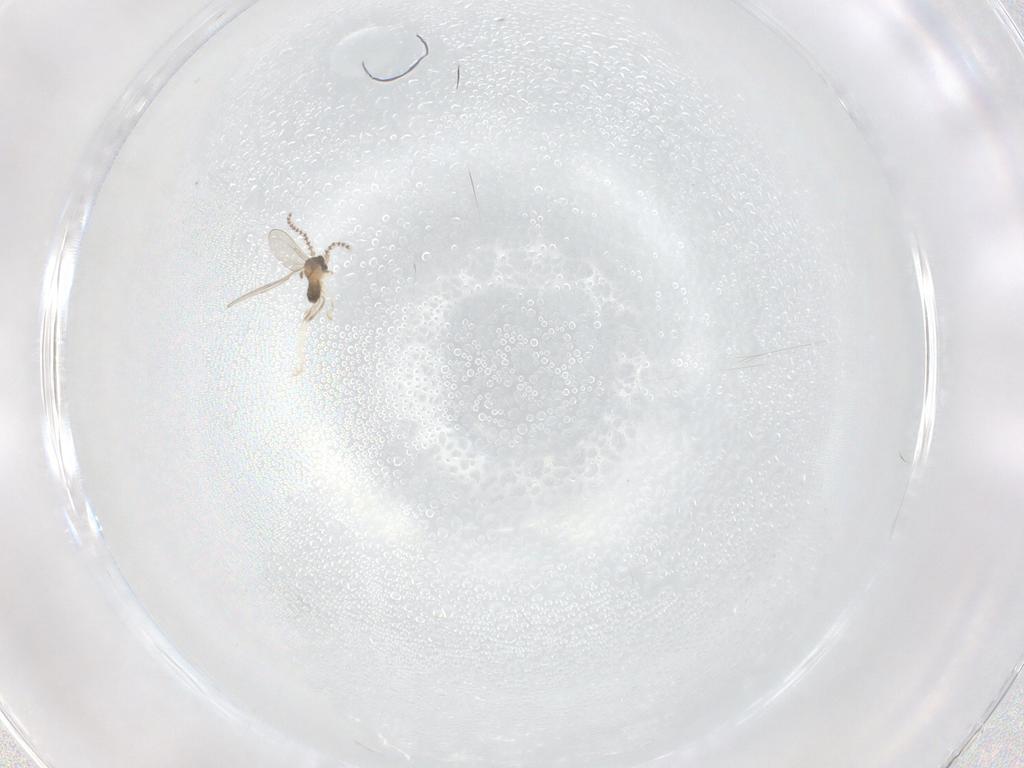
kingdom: Animalia
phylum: Arthropoda
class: Insecta
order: Diptera
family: Cecidomyiidae
